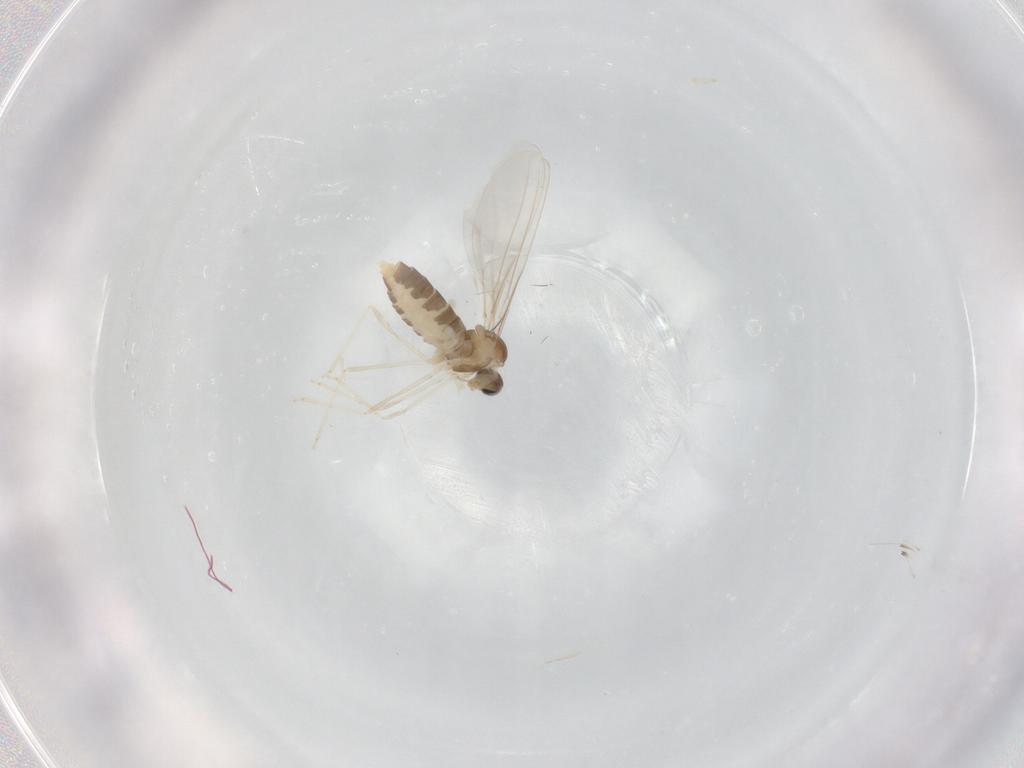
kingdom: Animalia
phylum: Arthropoda
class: Insecta
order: Diptera
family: Cecidomyiidae
